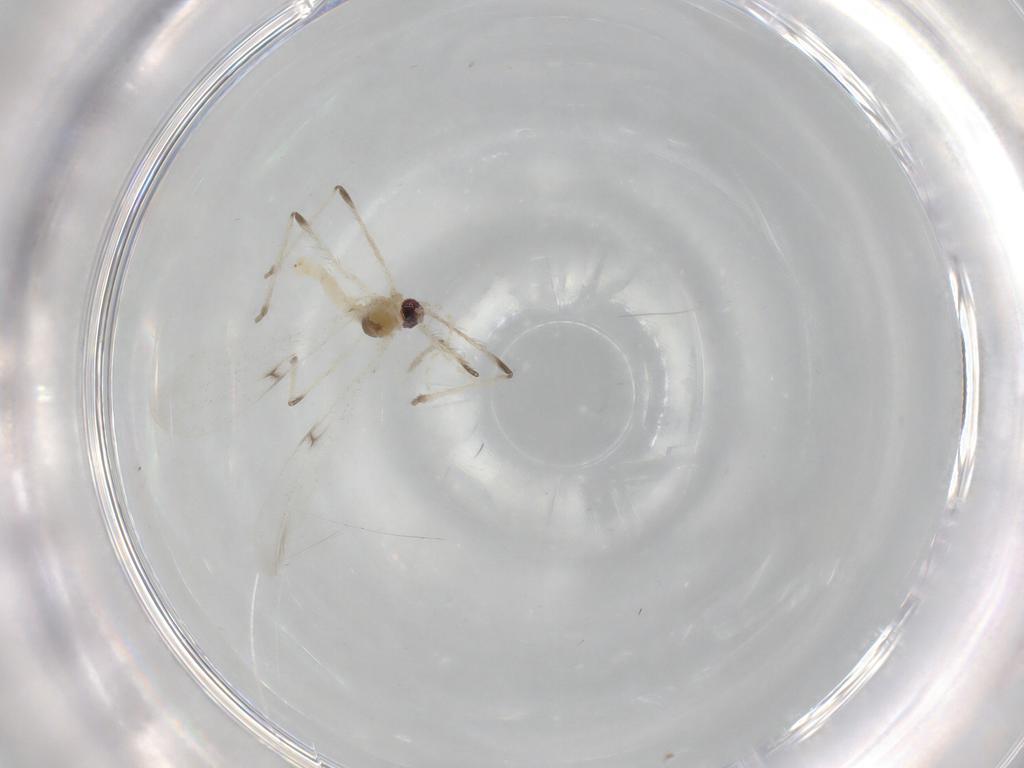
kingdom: Animalia
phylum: Arthropoda
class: Insecta
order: Diptera
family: Cecidomyiidae
